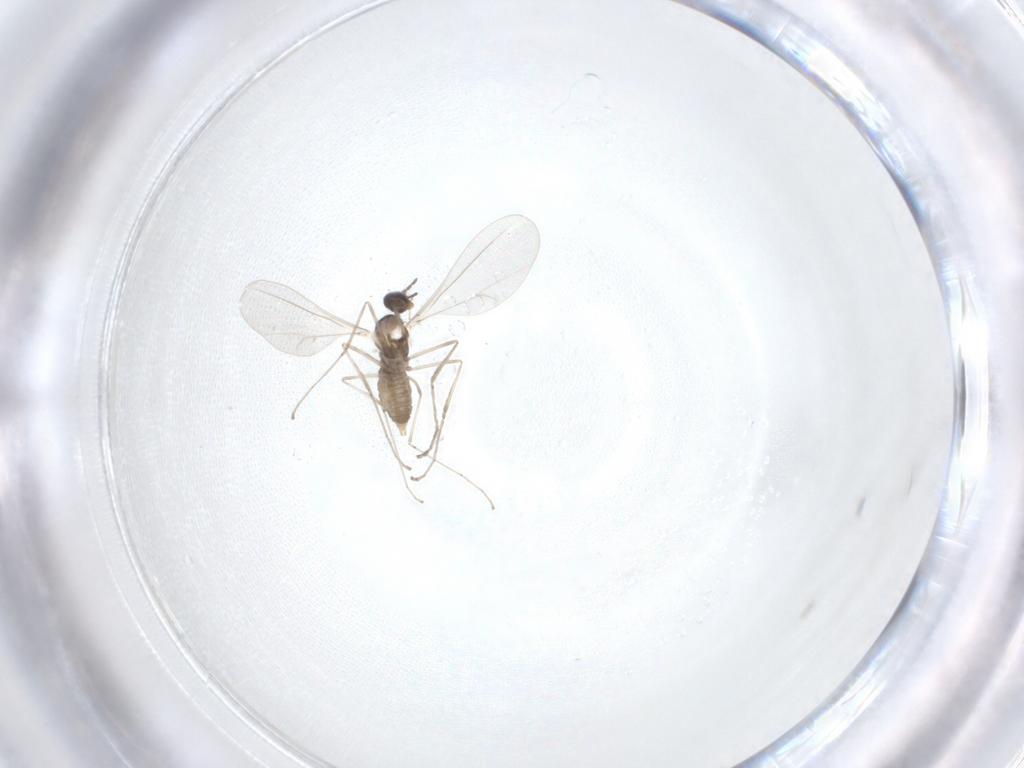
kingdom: Animalia
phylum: Arthropoda
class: Insecta
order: Diptera
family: Cecidomyiidae
